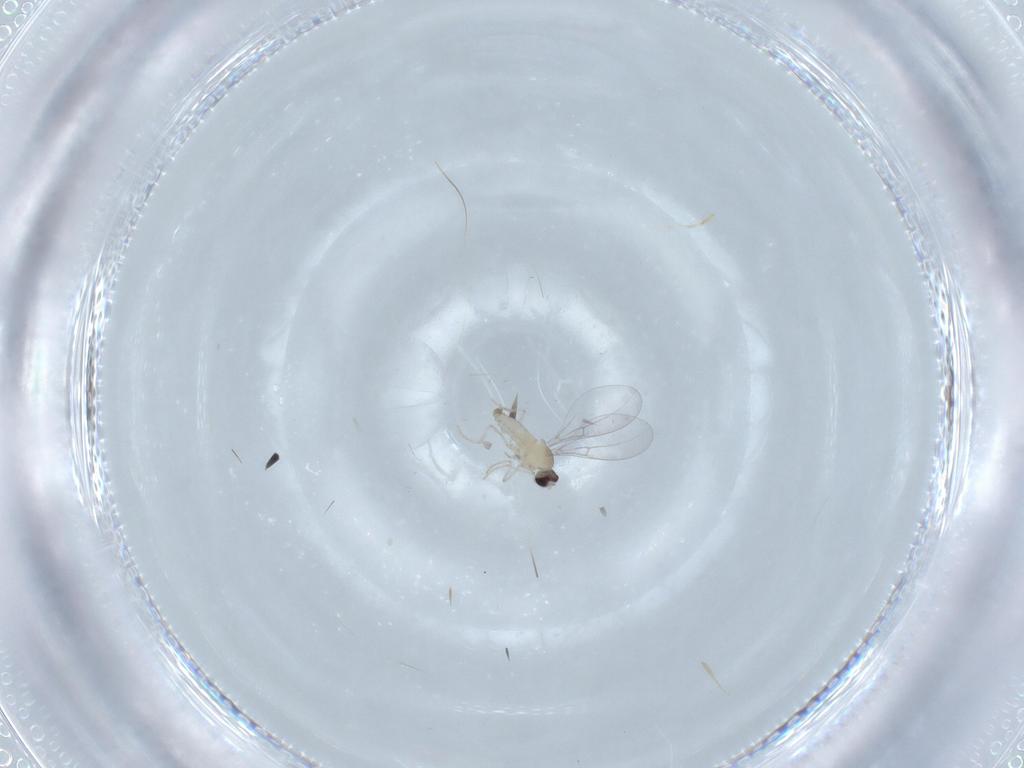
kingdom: Animalia
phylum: Arthropoda
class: Insecta
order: Diptera
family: Cecidomyiidae
